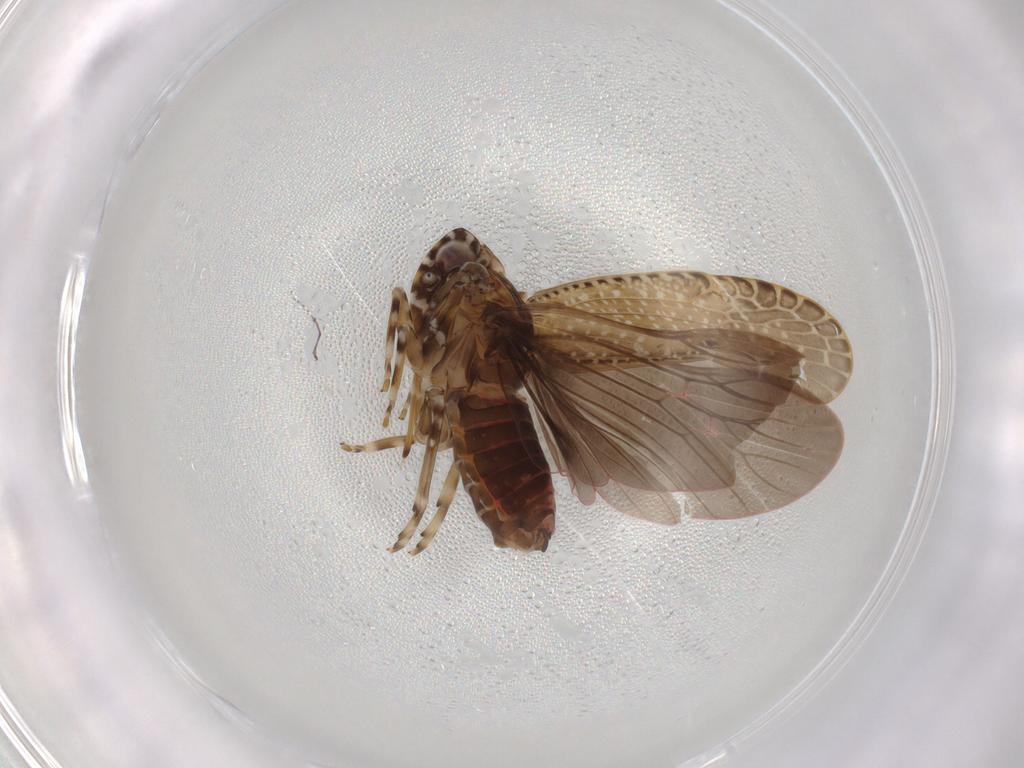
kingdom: Animalia
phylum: Arthropoda
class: Insecta
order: Hemiptera
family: Achilidae
